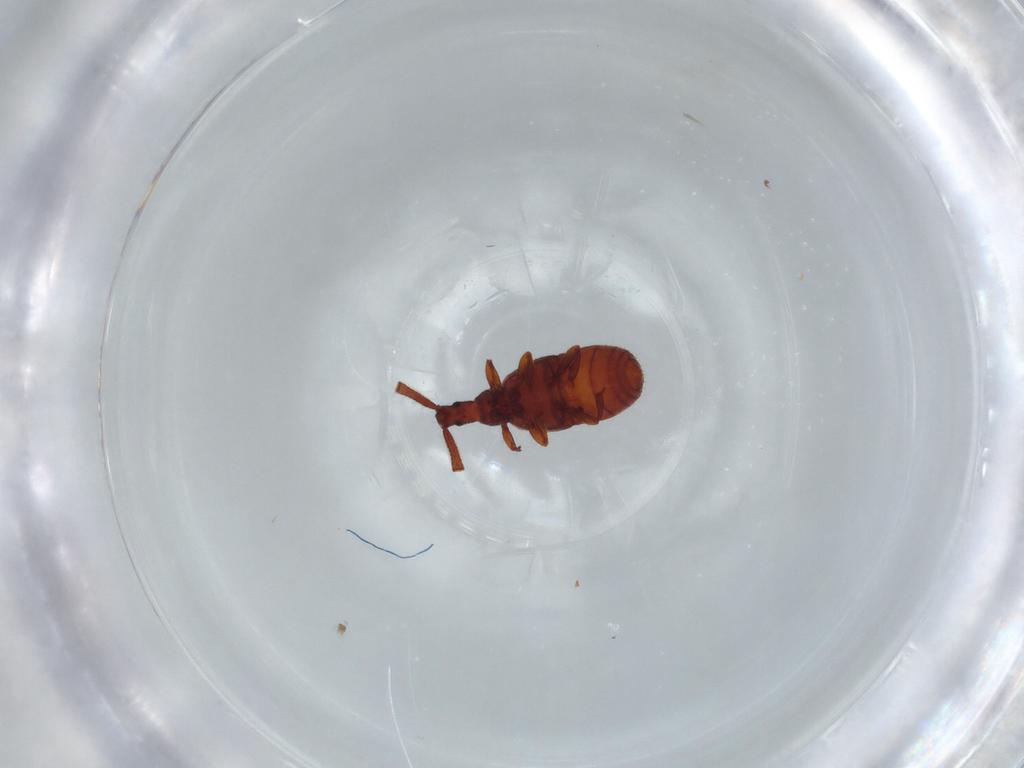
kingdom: Animalia
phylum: Arthropoda
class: Insecta
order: Coleoptera
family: Staphylinidae
